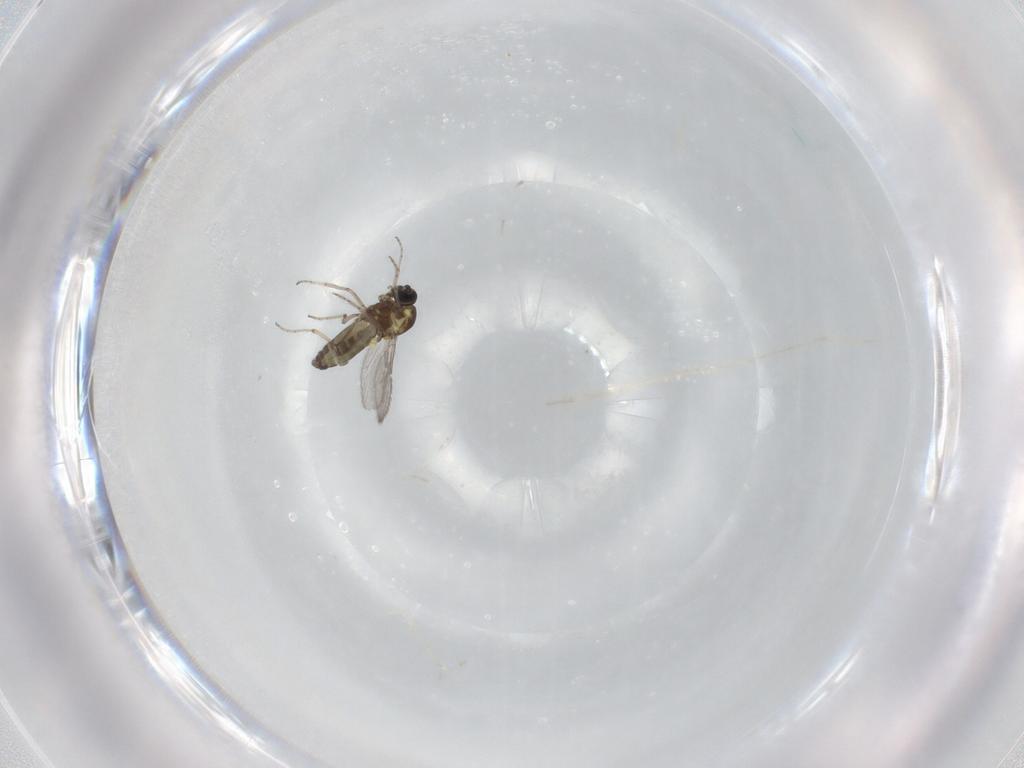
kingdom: Animalia
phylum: Arthropoda
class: Insecta
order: Diptera
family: Ceratopogonidae
